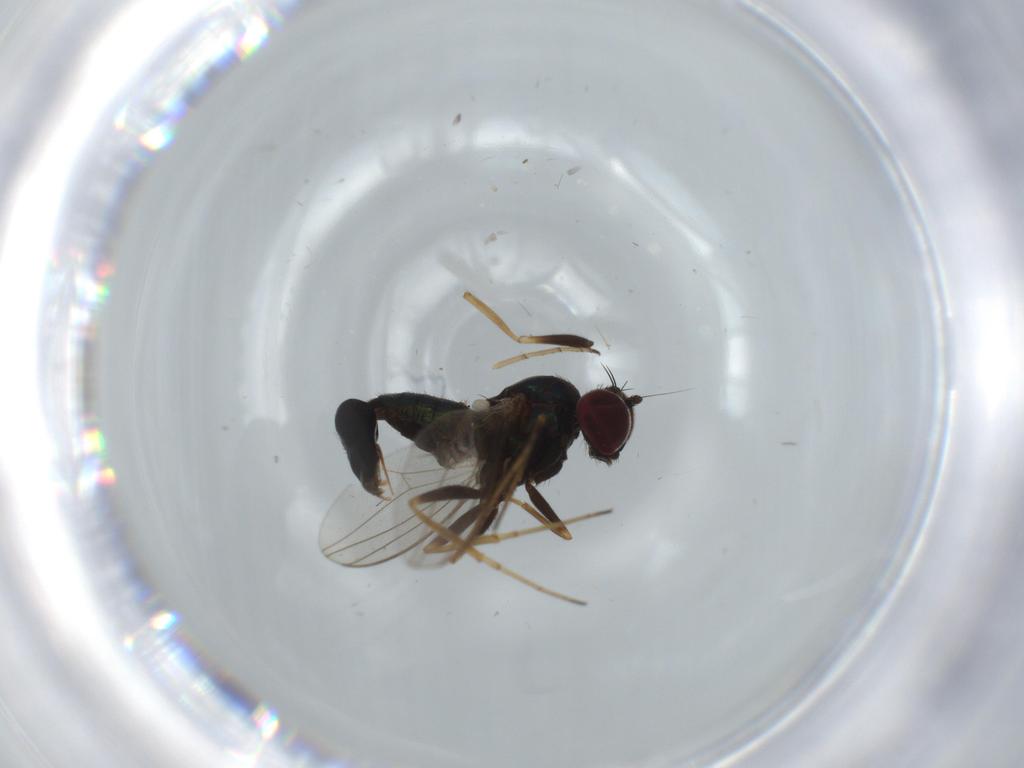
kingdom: Animalia
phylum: Arthropoda
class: Insecta
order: Diptera
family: Dolichopodidae
